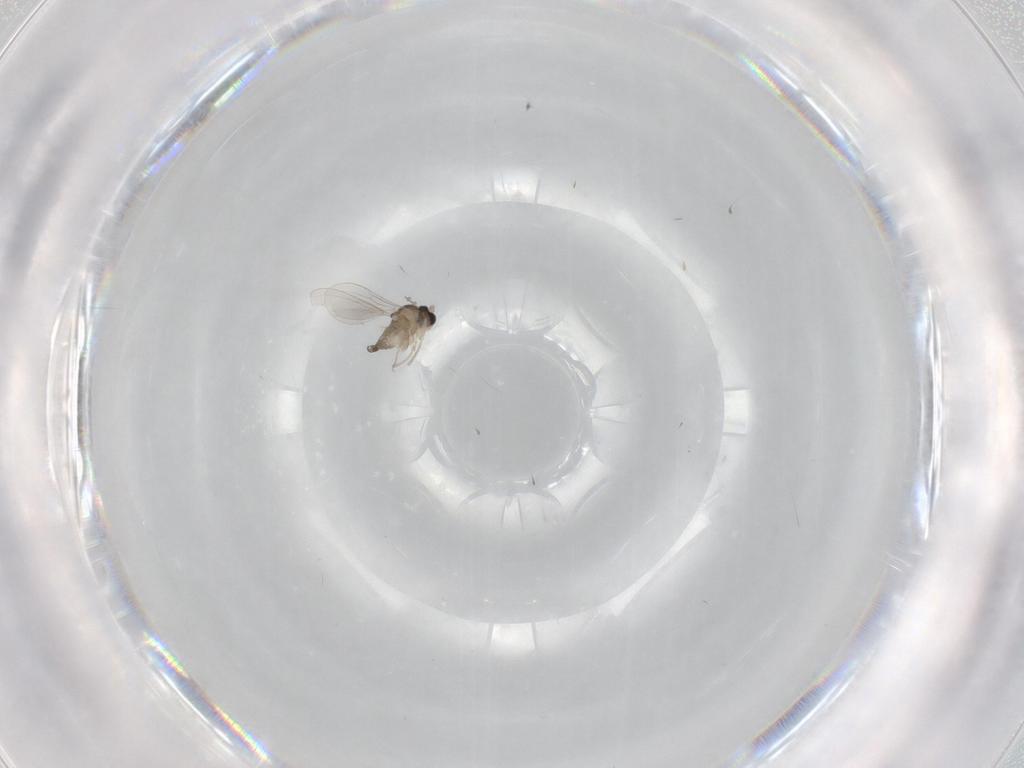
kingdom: Animalia
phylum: Arthropoda
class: Insecta
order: Diptera
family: Cecidomyiidae
